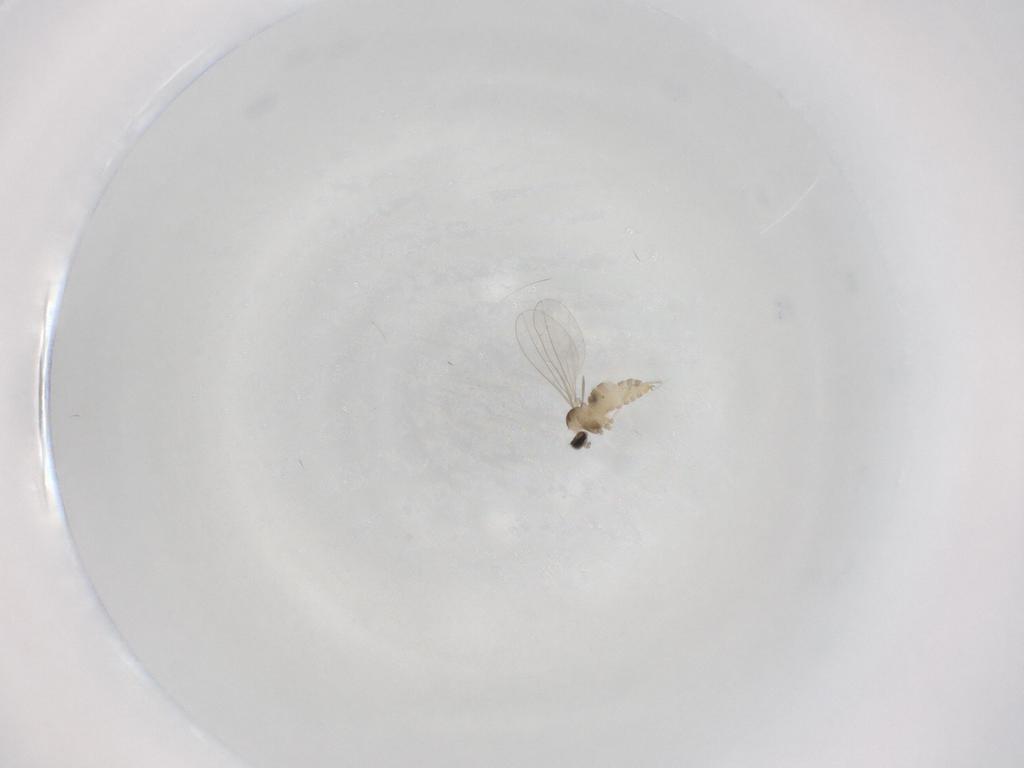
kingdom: Animalia
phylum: Arthropoda
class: Insecta
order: Diptera
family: Cecidomyiidae
